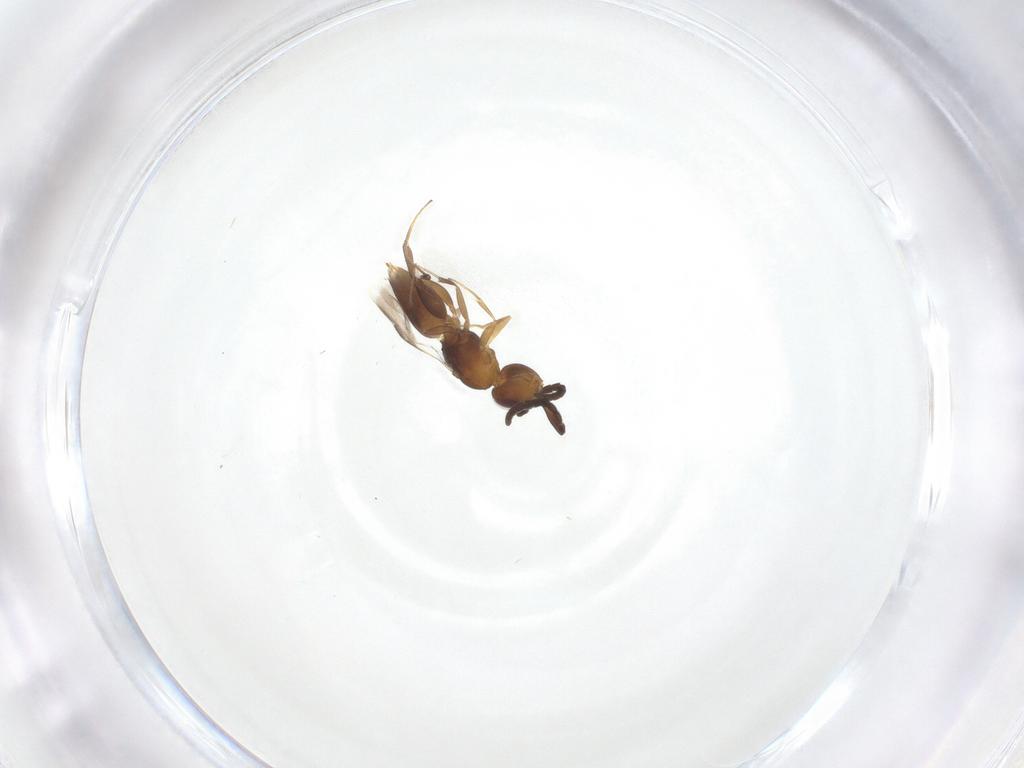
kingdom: Animalia
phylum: Arthropoda
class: Insecta
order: Hymenoptera
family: Megaspilidae
